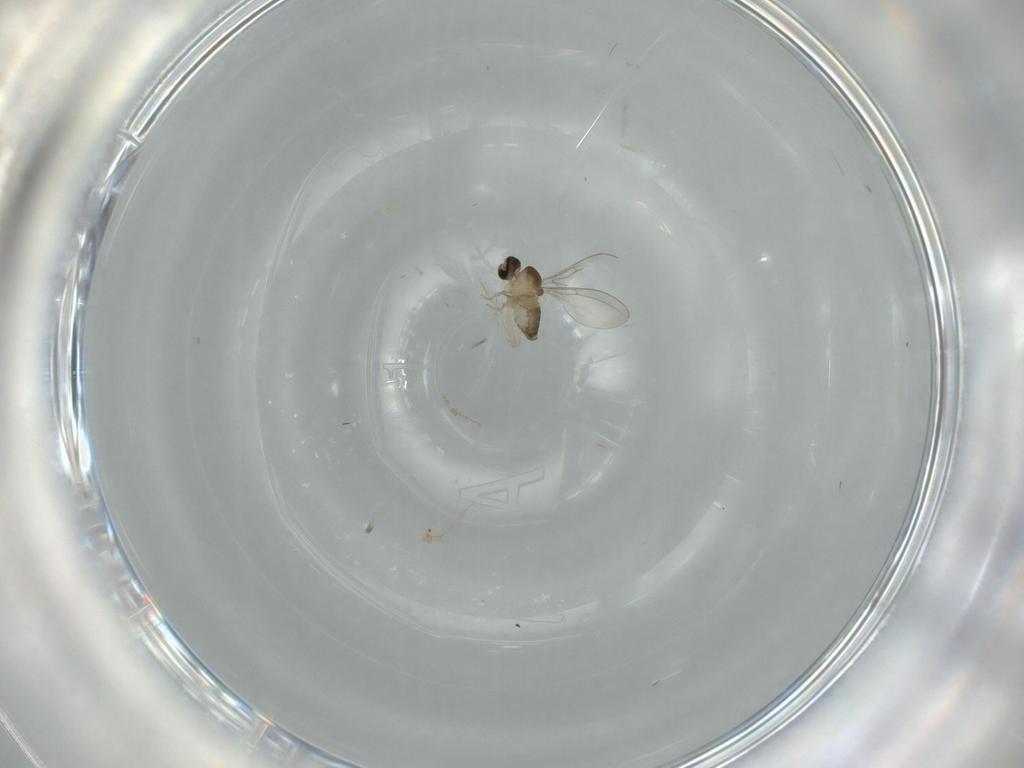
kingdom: Animalia
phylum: Arthropoda
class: Insecta
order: Diptera
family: Cecidomyiidae
